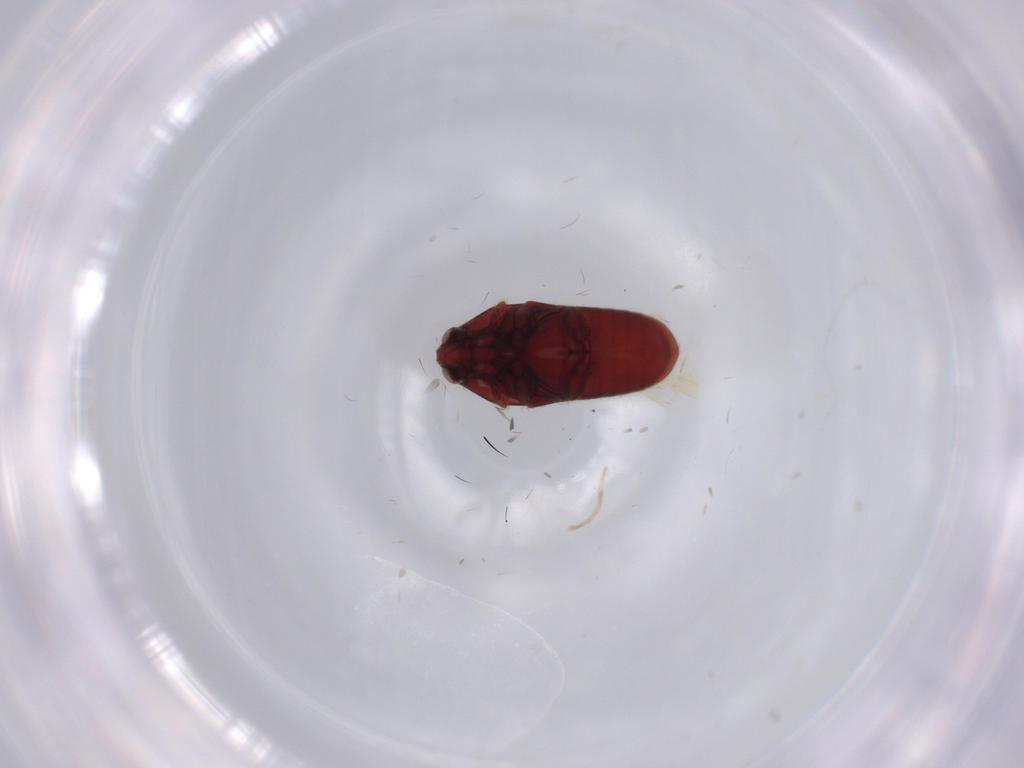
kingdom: Animalia
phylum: Arthropoda
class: Insecta
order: Coleoptera
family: Throscidae
